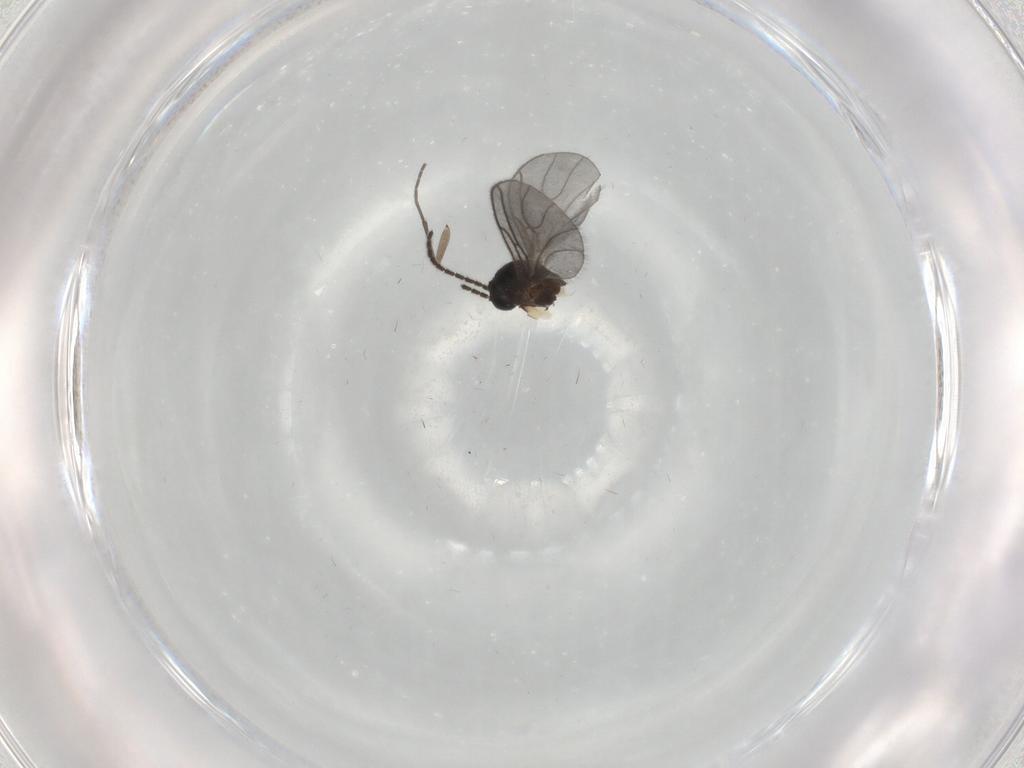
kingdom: Animalia
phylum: Arthropoda
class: Insecta
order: Diptera
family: Sciaridae
